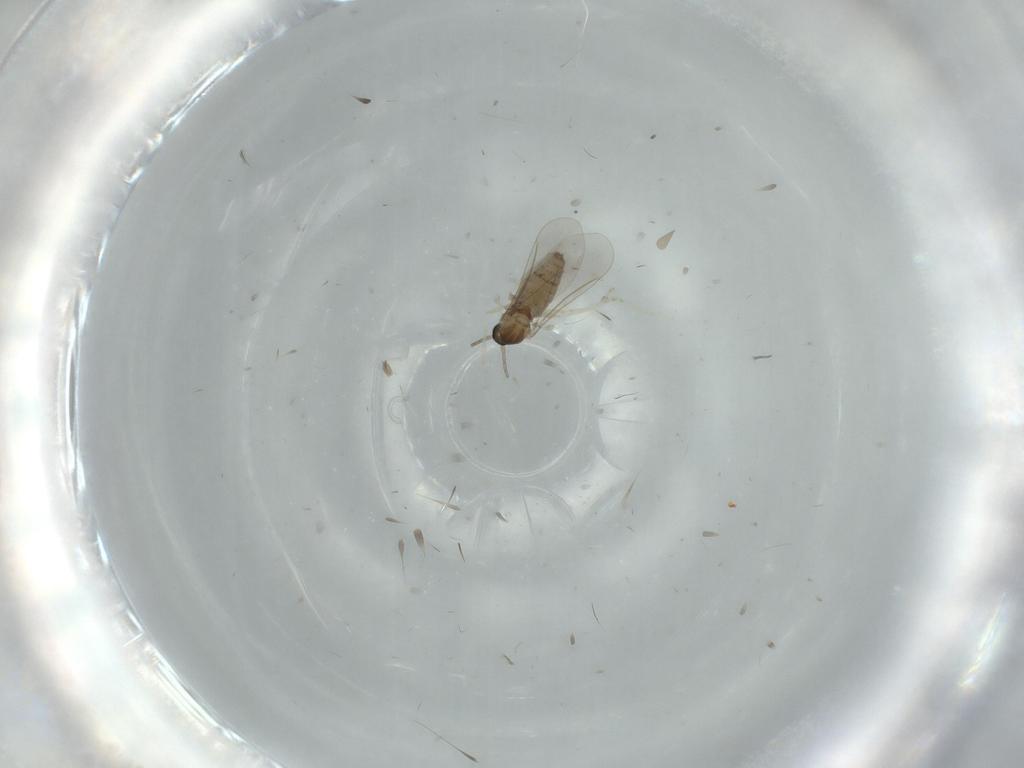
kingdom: Animalia
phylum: Arthropoda
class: Insecta
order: Diptera
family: Cecidomyiidae
